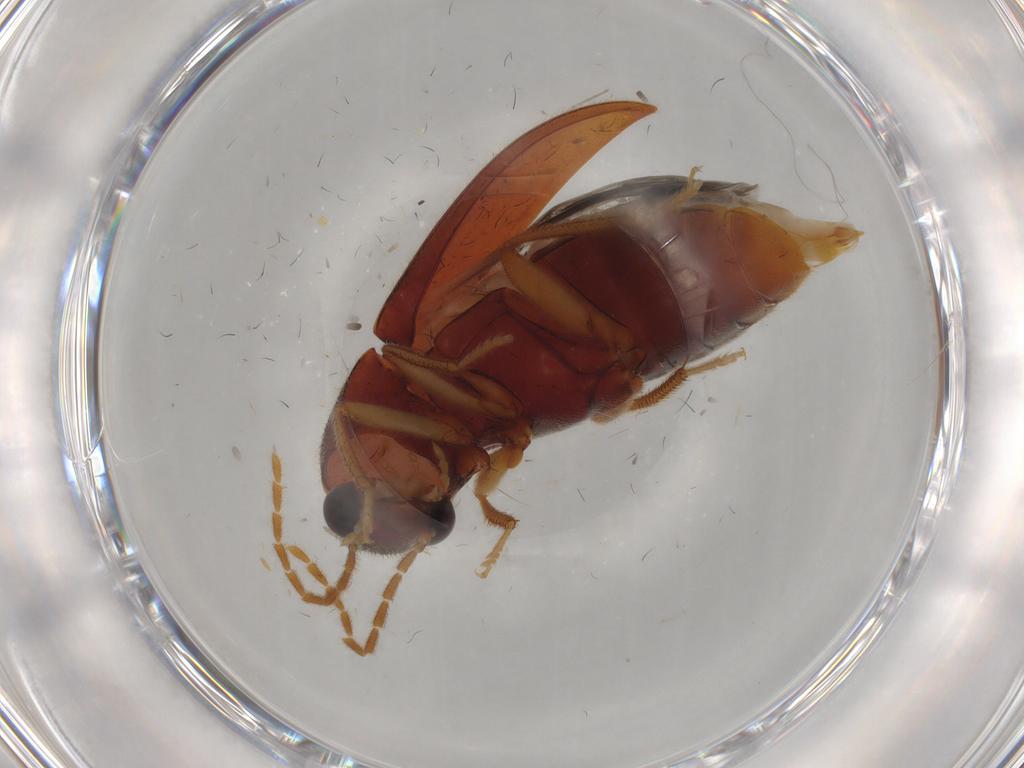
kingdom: Animalia
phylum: Arthropoda
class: Insecta
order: Coleoptera
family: Ptilodactylidae
